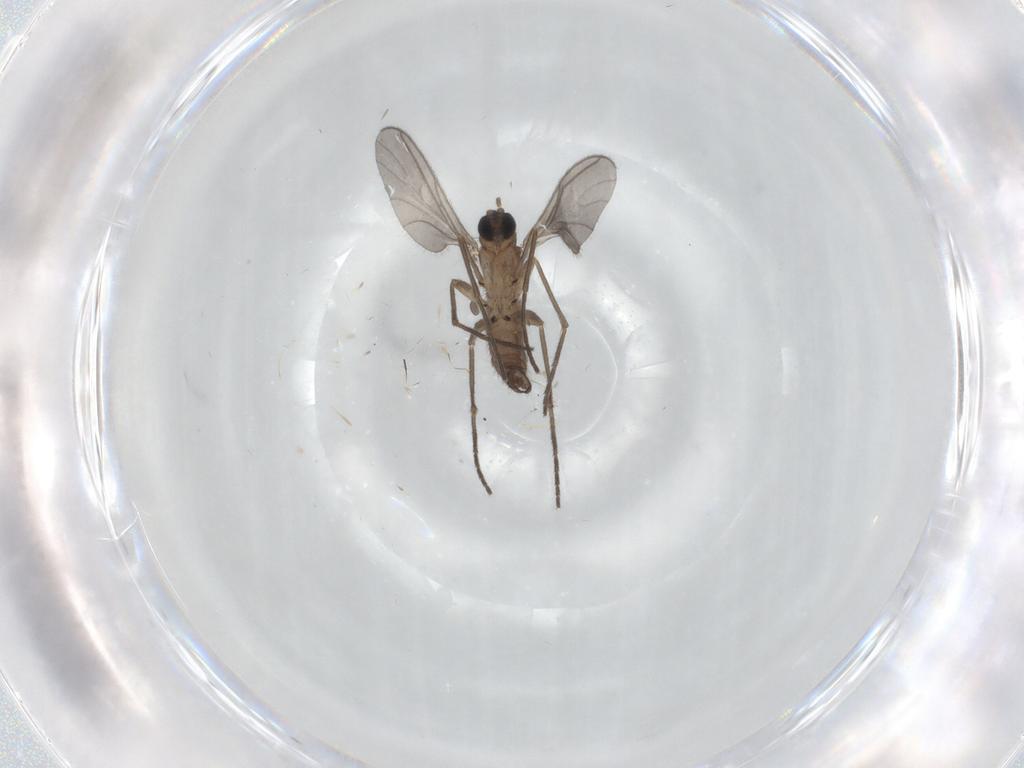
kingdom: Animalia
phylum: Arthropoda
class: Insecta
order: Diptera
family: Sciaridae
